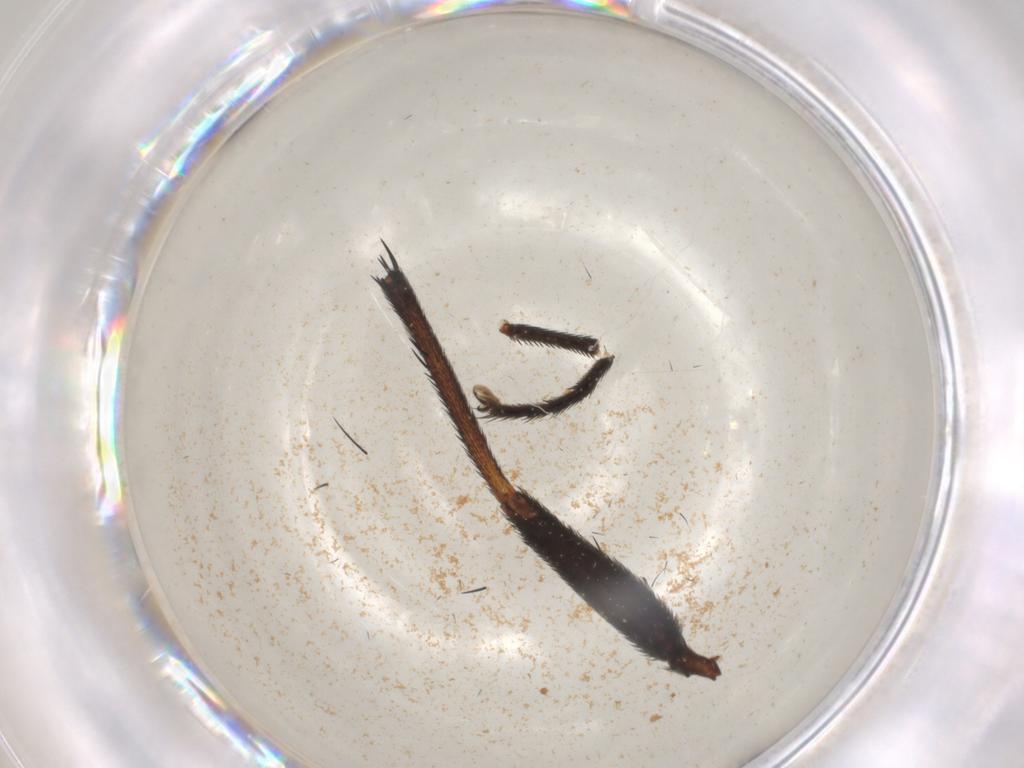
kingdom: Animalia
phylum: Arthropoda
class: Insecta
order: Diptera
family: Calliphoridae
